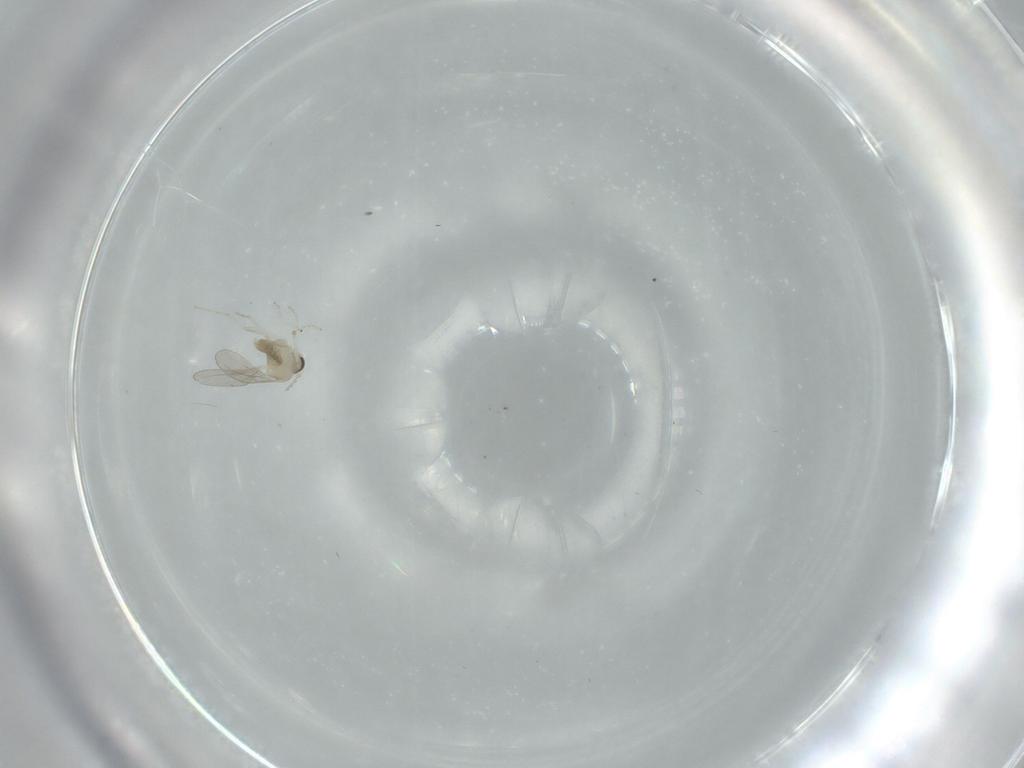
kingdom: Animalia
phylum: Arthropoda
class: Insecta
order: Diptera
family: Cecidomyiidae
